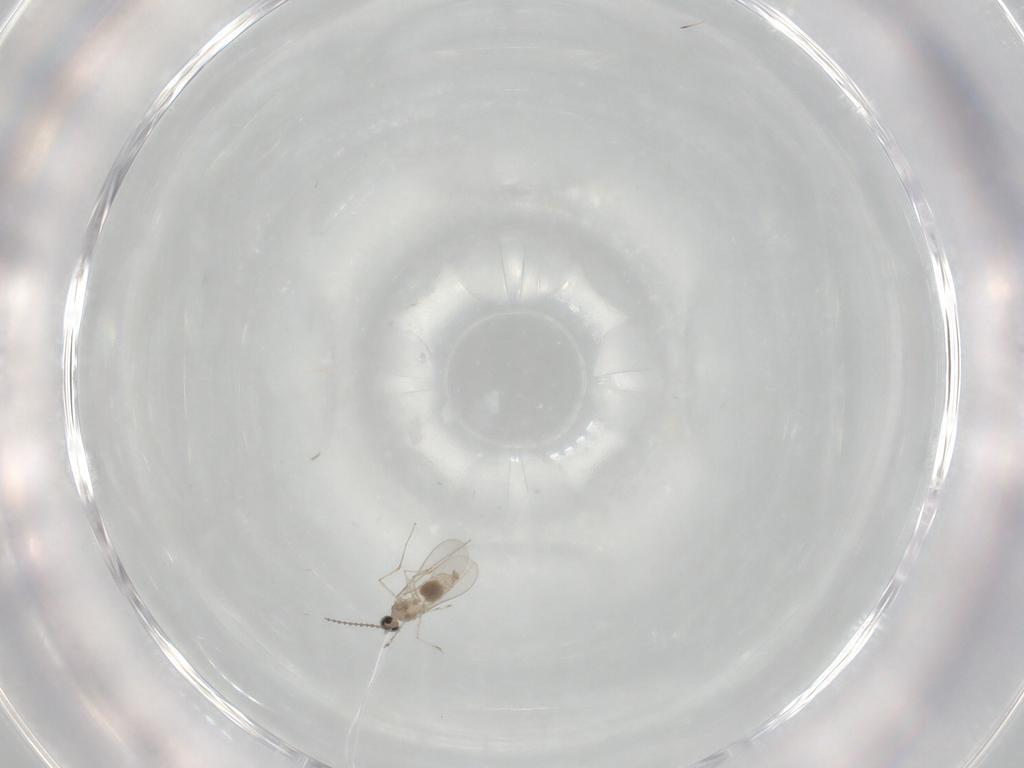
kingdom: Animalia
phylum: Arthropoda
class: Insecta
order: Diptera
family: Cecidomyiidae
